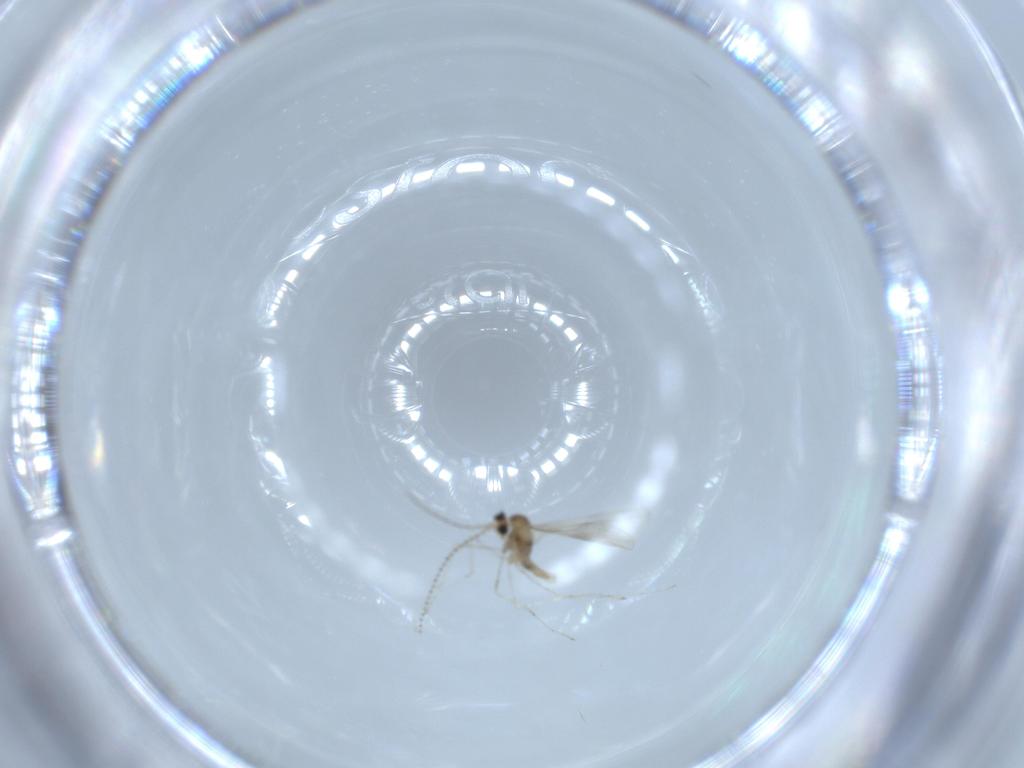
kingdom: Animalia
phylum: Arthropoda
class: Insecta
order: Diptera
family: Cecidomyiidae
